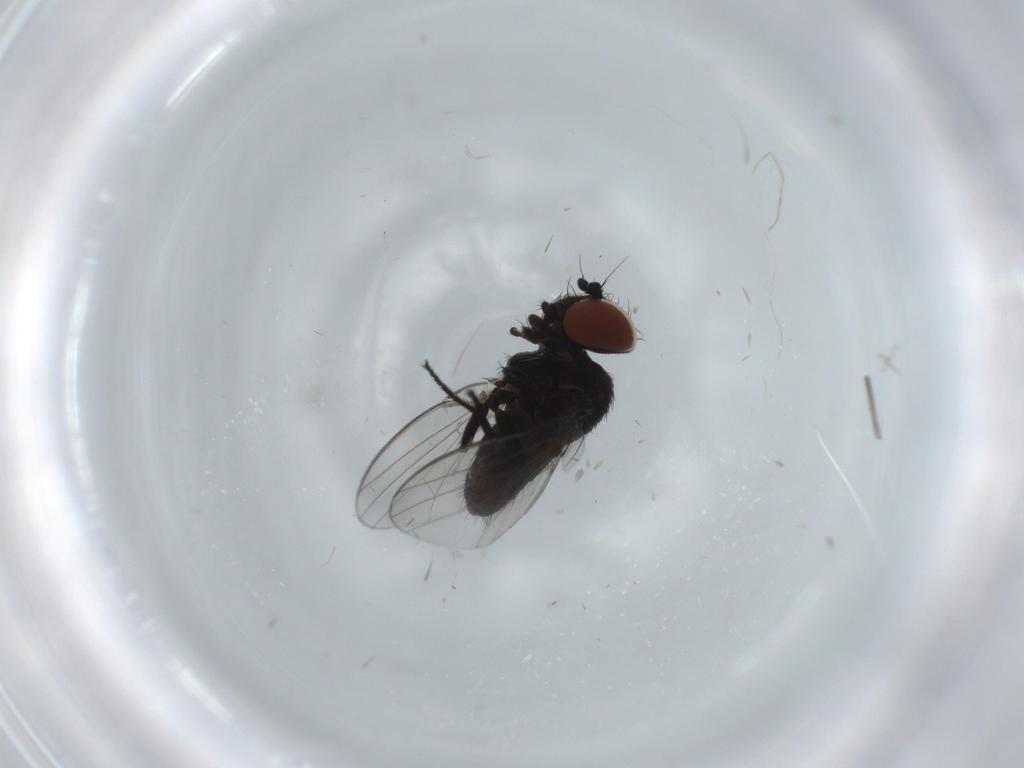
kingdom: Animalia
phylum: Arthropoda
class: Insecta
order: Diptera
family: Milichiidae
